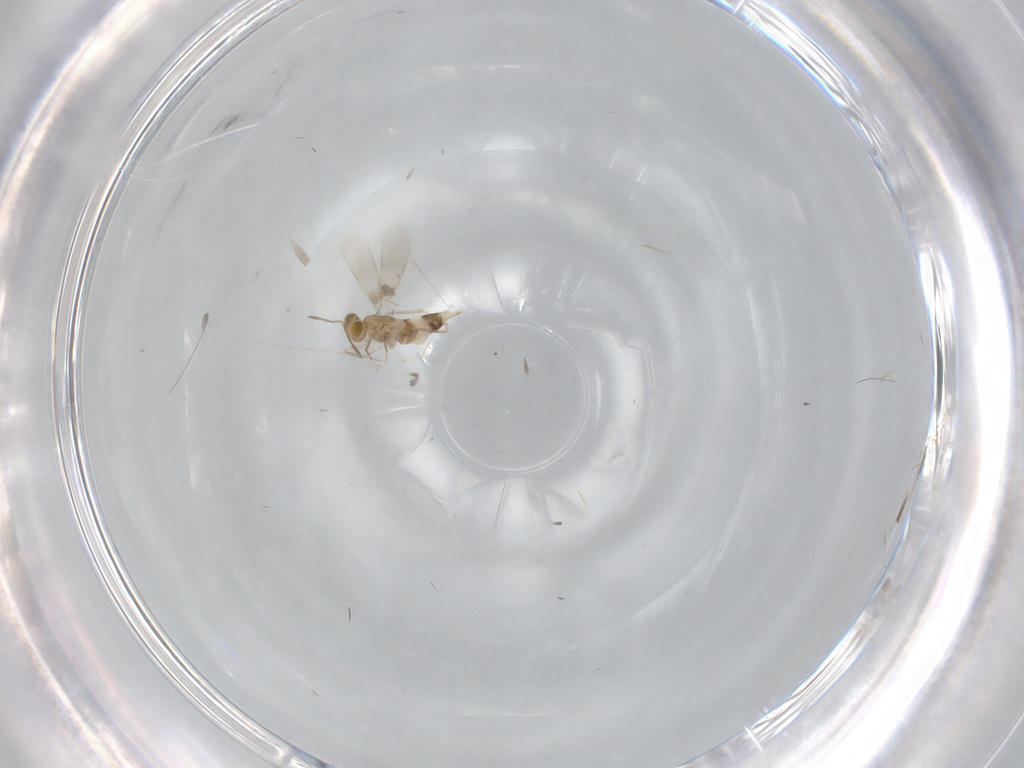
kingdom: Animalia
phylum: Arthropoda
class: Insecta
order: Hymenoptera
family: Aphelinidae
